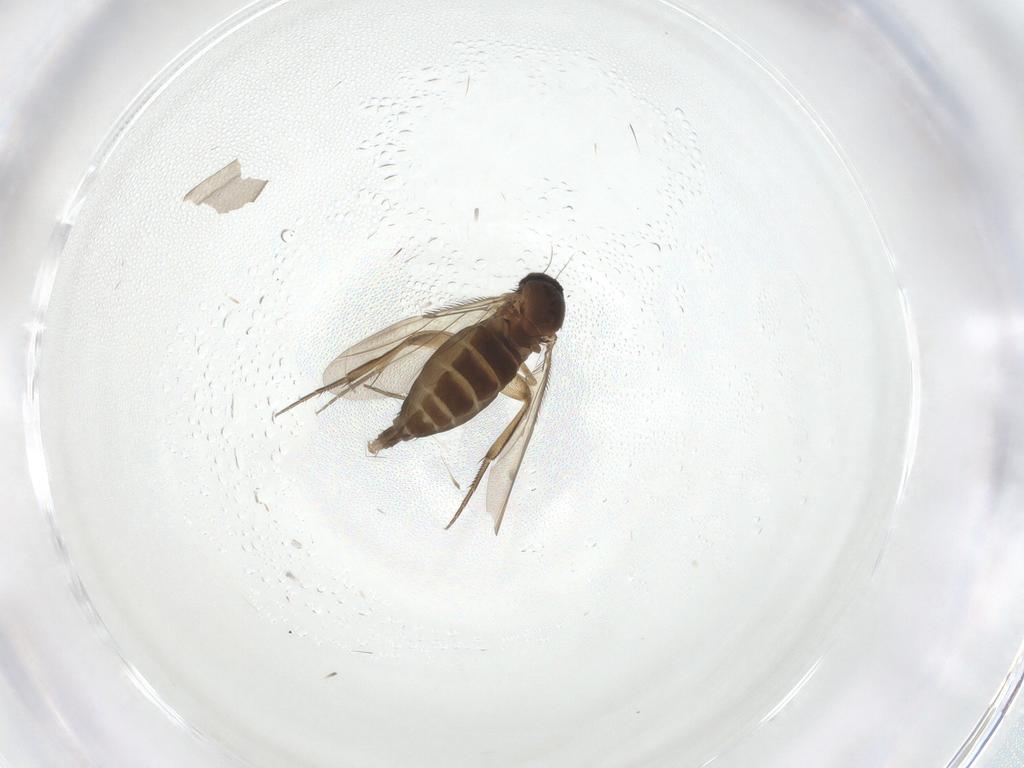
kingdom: Animalia
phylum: Arthropoda
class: Insecta
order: Diptera
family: Phoridae
